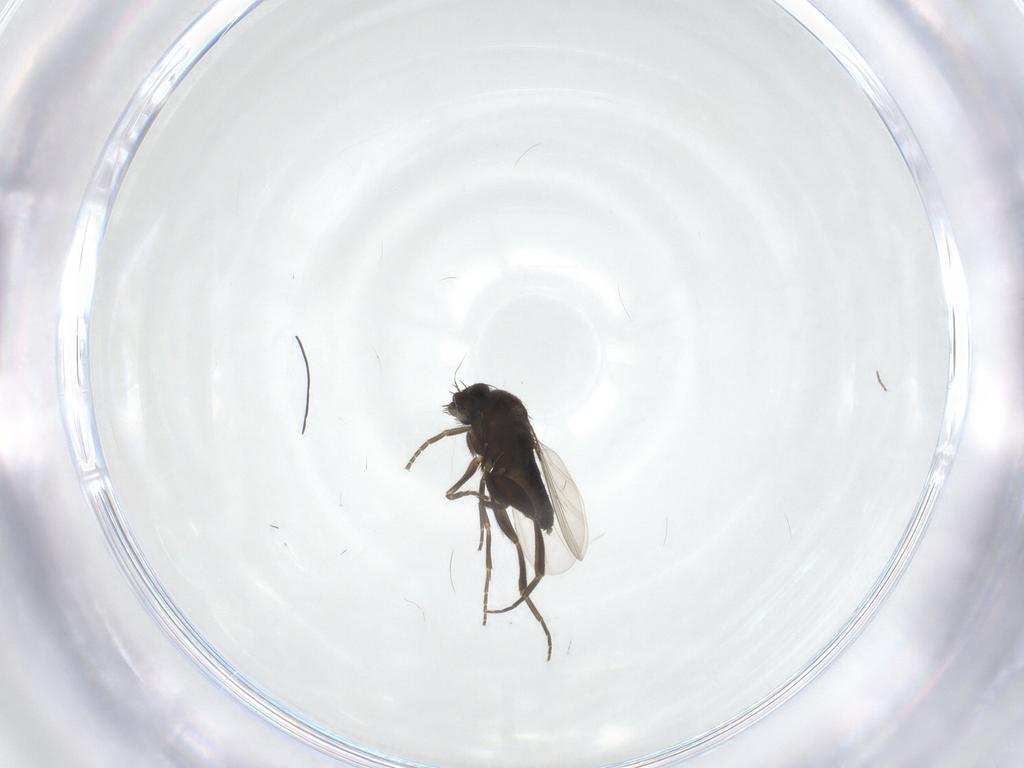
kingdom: Animalia
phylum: Arthropoda
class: Insecta
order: Diptera
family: Phoridae
